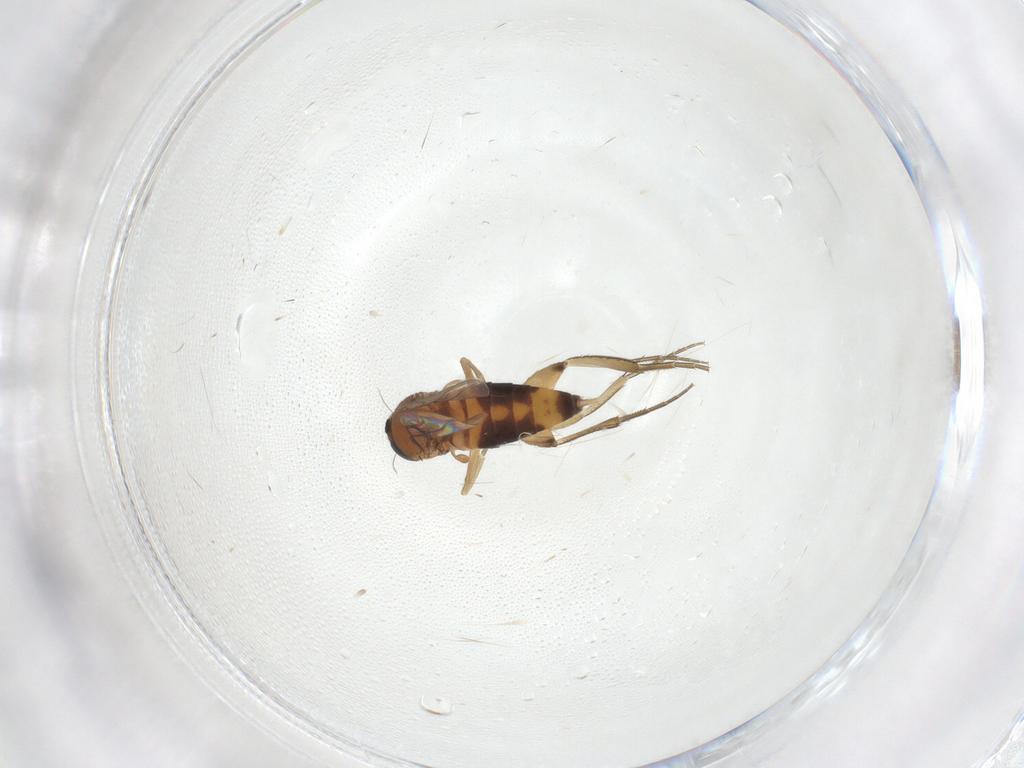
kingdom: Animalia
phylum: Arthropoda
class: Insecta
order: Diptera
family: Phoridae
